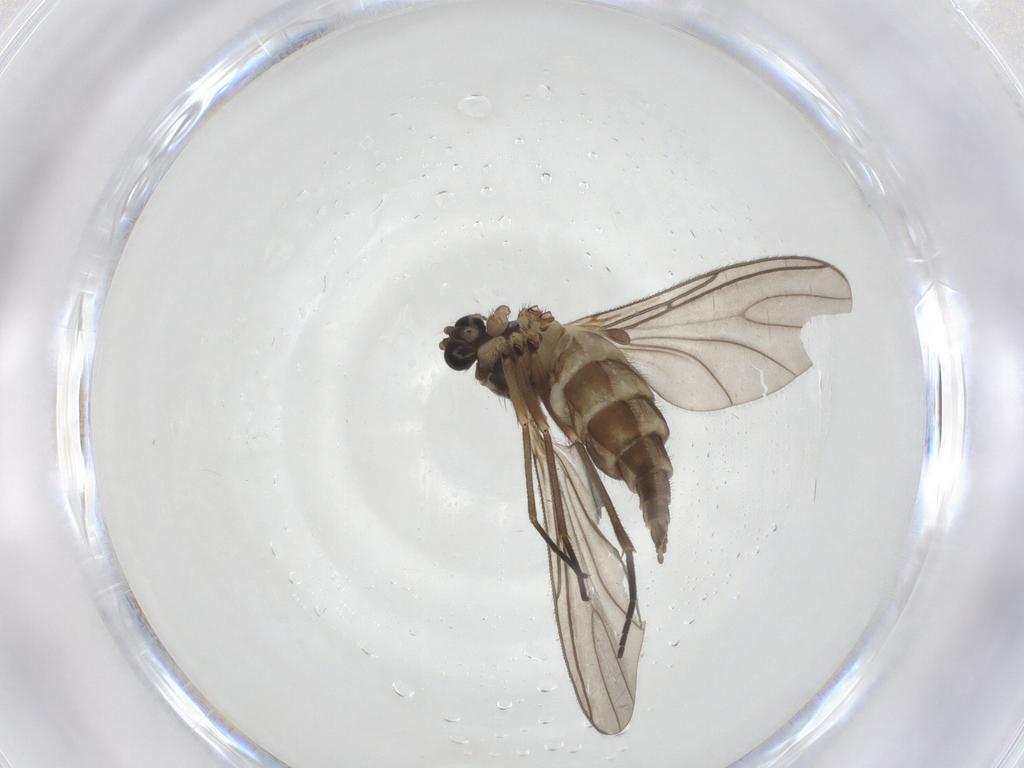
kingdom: Animalia
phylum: Arthropoda
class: Insecta
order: Diptera
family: Sciaridae
